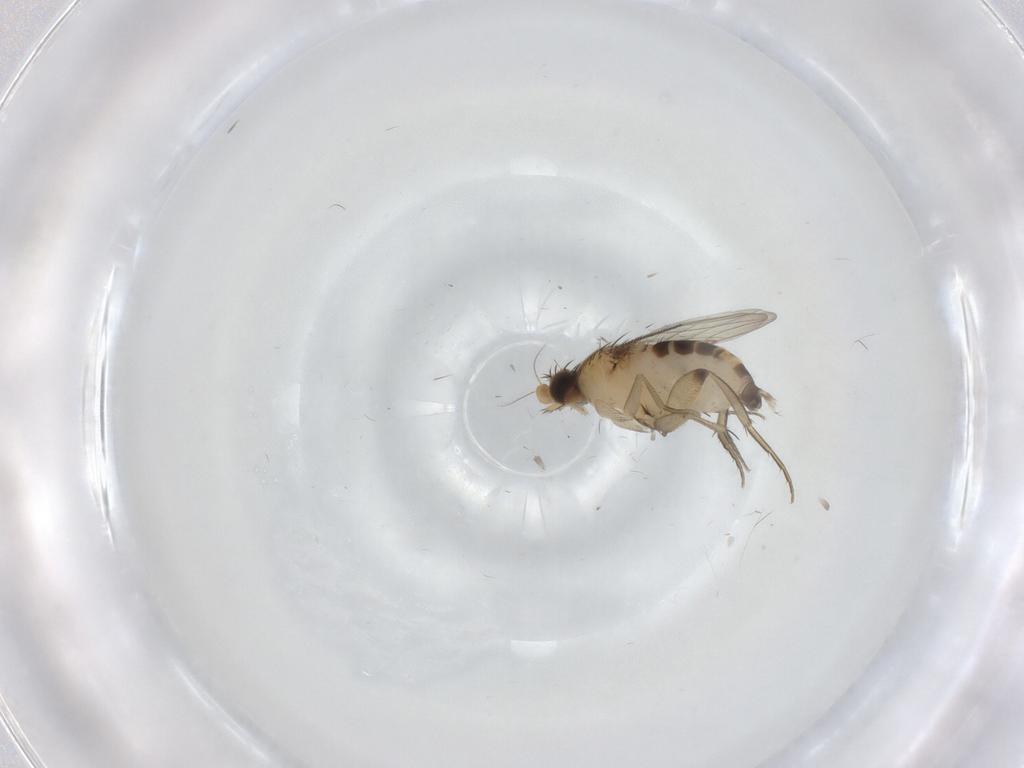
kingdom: Animalia
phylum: Arthropoda
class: Insecta
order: Diptera
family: Phoridae
